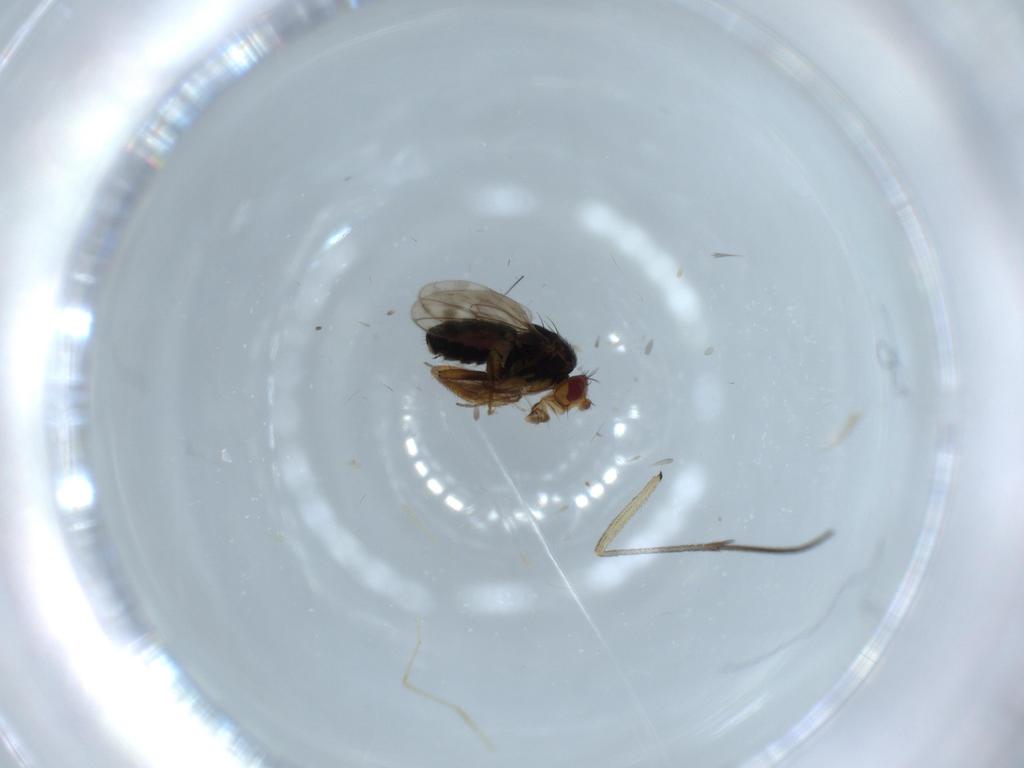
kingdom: Animalia
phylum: Arthropoda
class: Insecta
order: Diptera
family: Sphaeroceridae
